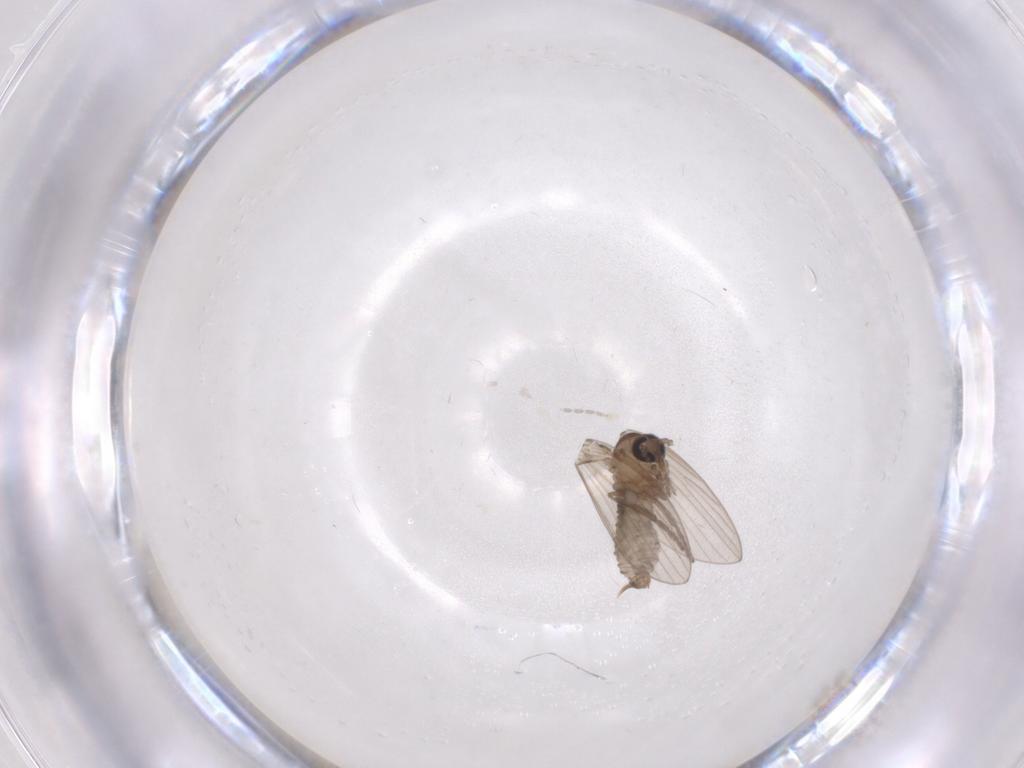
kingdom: Animalia
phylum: Arthropoda
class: Insecta
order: Diptera
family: Psychodidae
